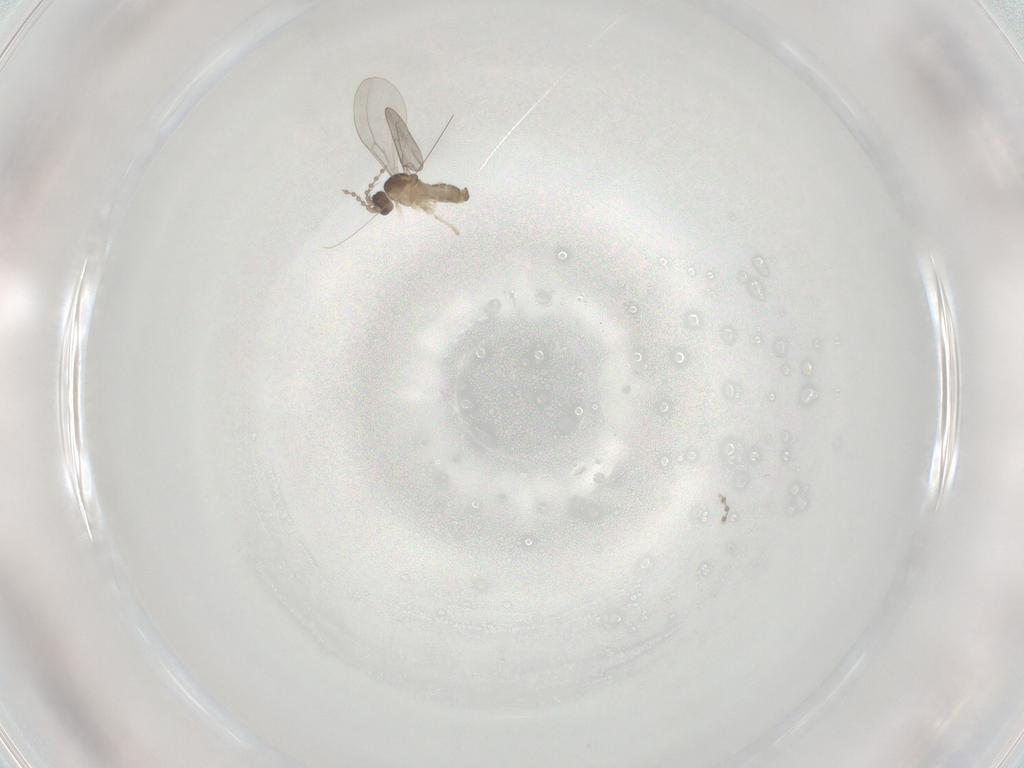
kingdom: Animalia
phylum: Arthropoda
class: Insecta
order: Diptera
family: Cecidomyiidae
